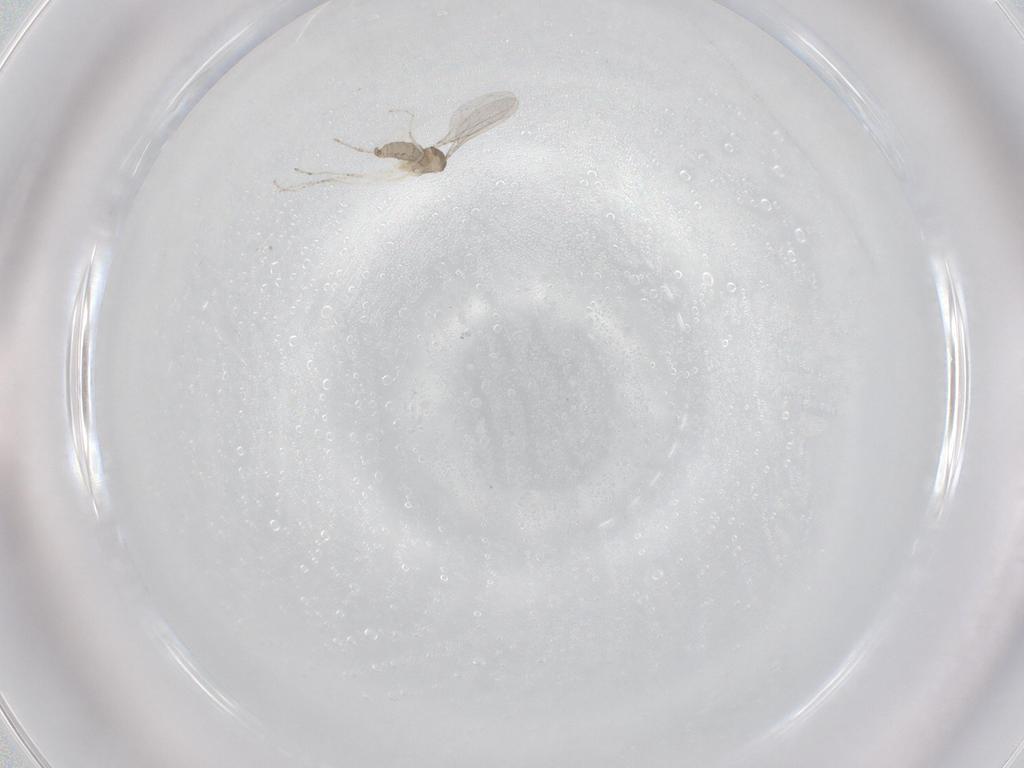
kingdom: Animalia
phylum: Arthropoda
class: Insecta
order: Diptera
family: Cecidomyiidae
